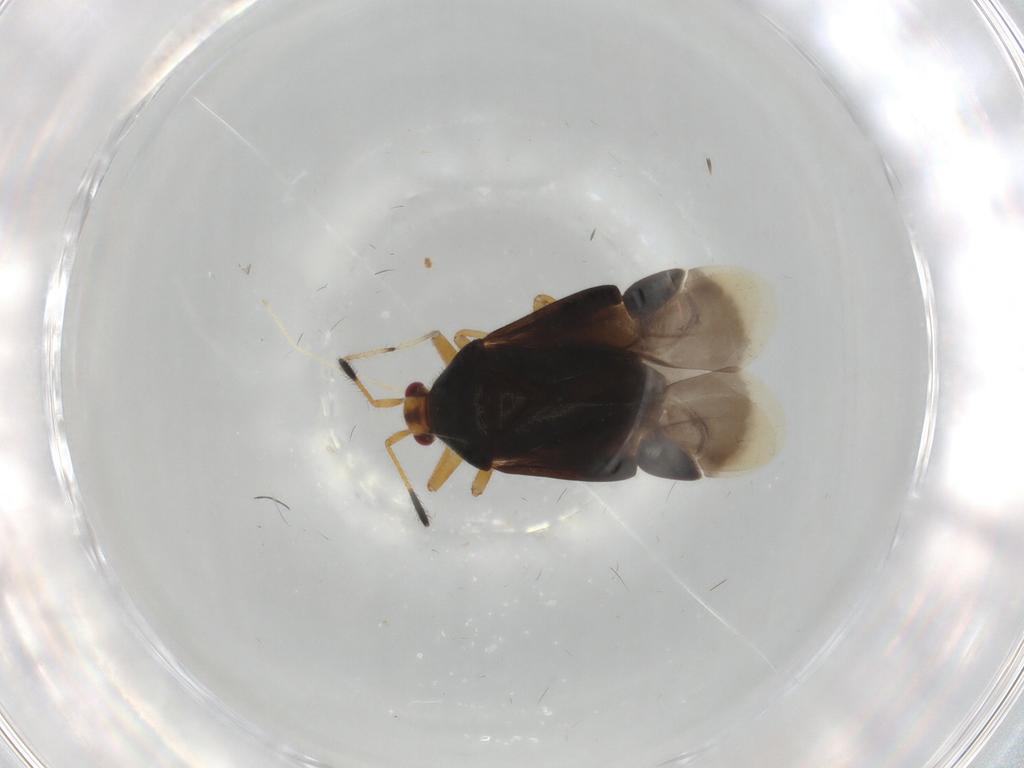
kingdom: Animalia
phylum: Arthropoda
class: Insecta
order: Hemiptera
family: Miridae
